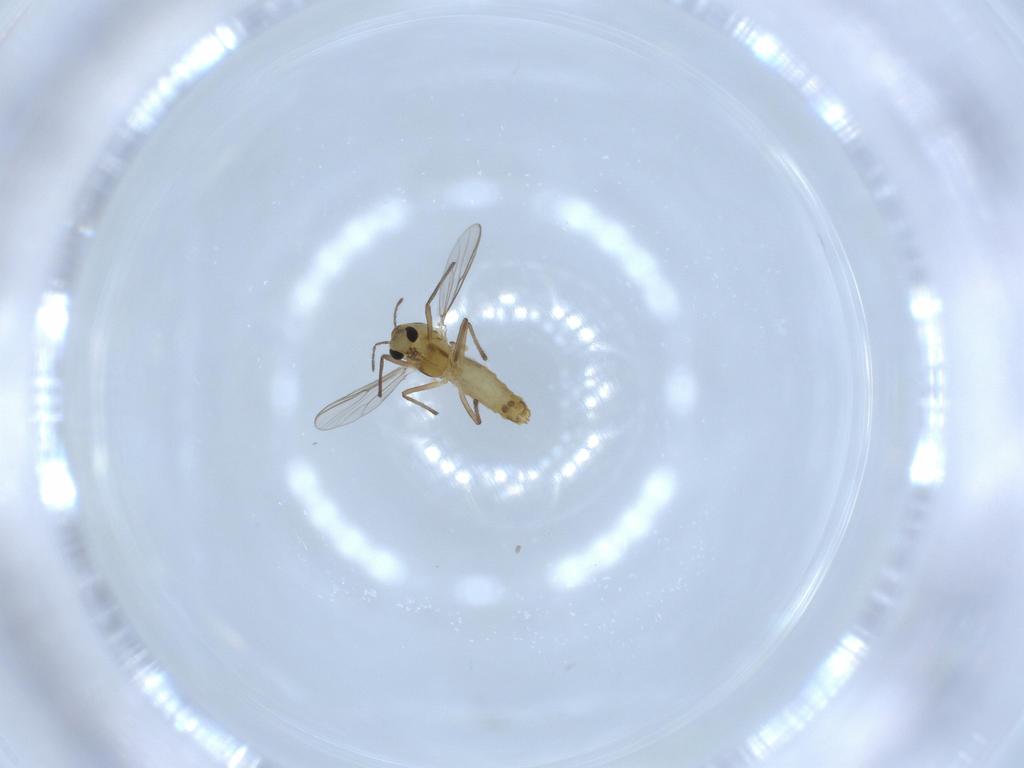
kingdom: Animalia
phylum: Arthropoda
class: Insecta
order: Diptera
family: Chironomidae
